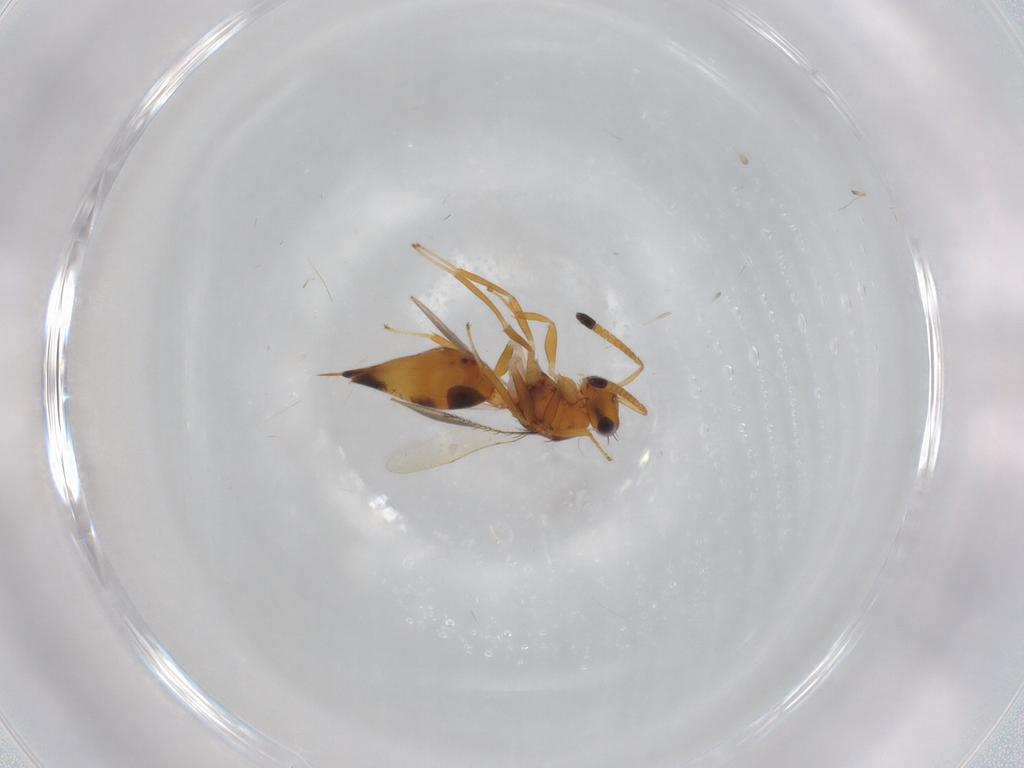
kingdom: Animalia
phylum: Arthropoda
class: Insecta
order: Hymenoptera
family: Pteromalidae
